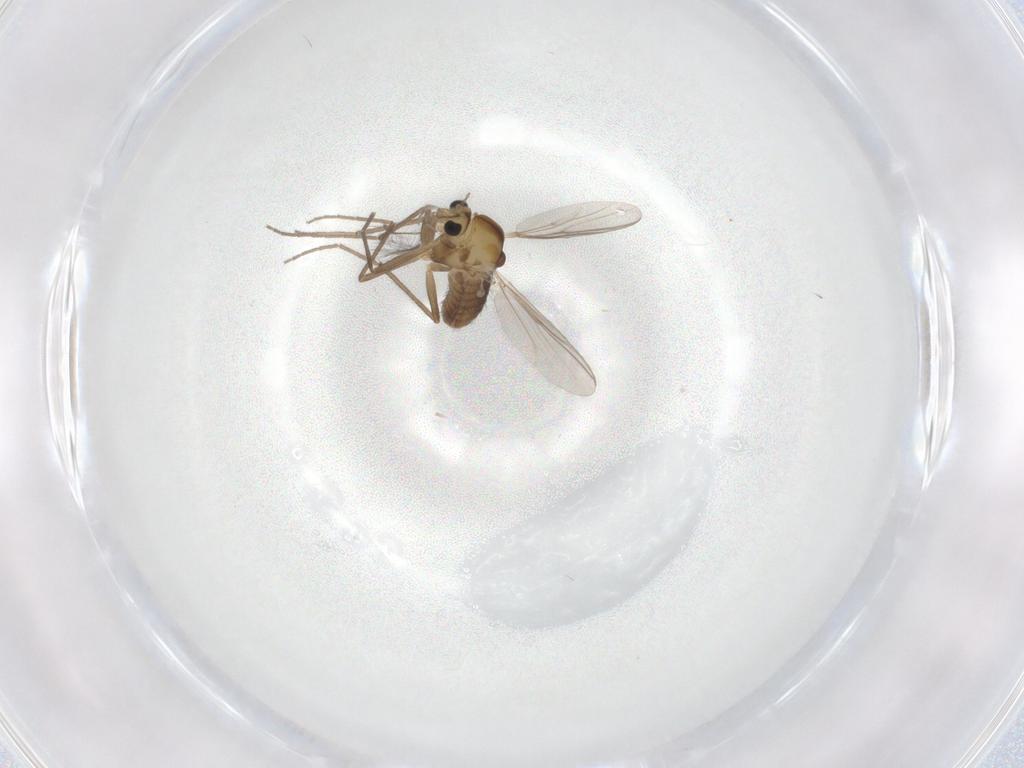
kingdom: Animalia
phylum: Arthropoda
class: Insecta
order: Diptera
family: Chironomidae
